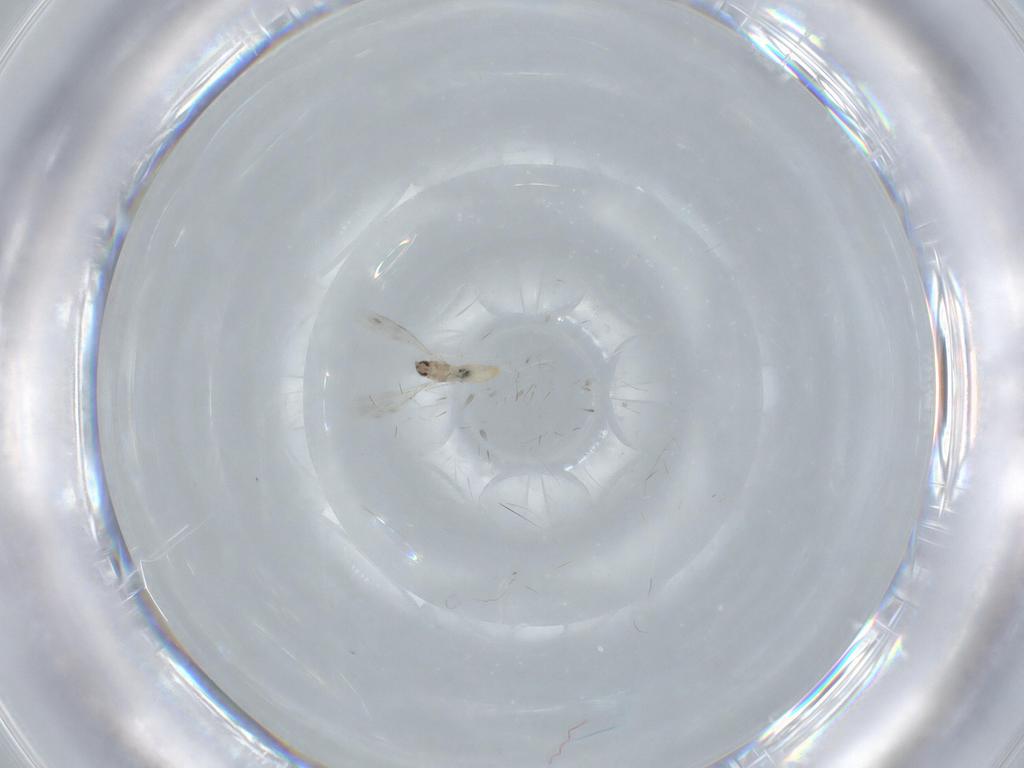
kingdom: Animalia
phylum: Arthropoda
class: Insecta
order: Diptera
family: Cecidomyiidae
